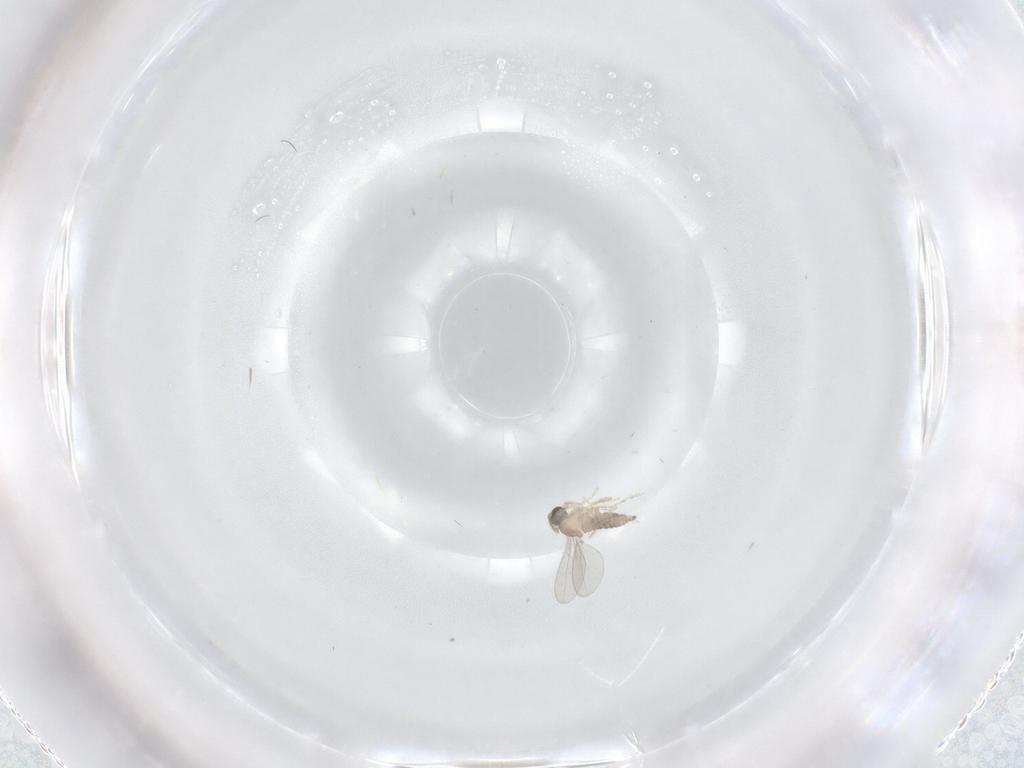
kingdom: Animalia
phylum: Arthropoda
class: Insecta
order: Diptera
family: Cecidomyiidae
